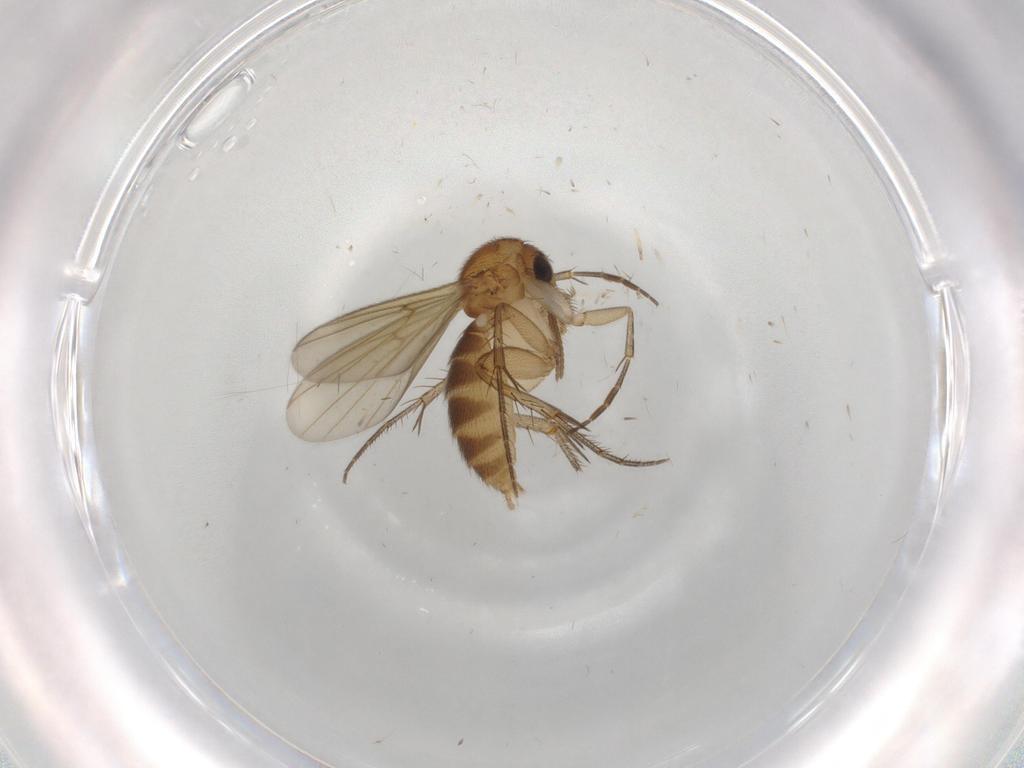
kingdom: Animalia
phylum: Arthropoda
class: Insecta
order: Diptera
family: Mycetophilidae
